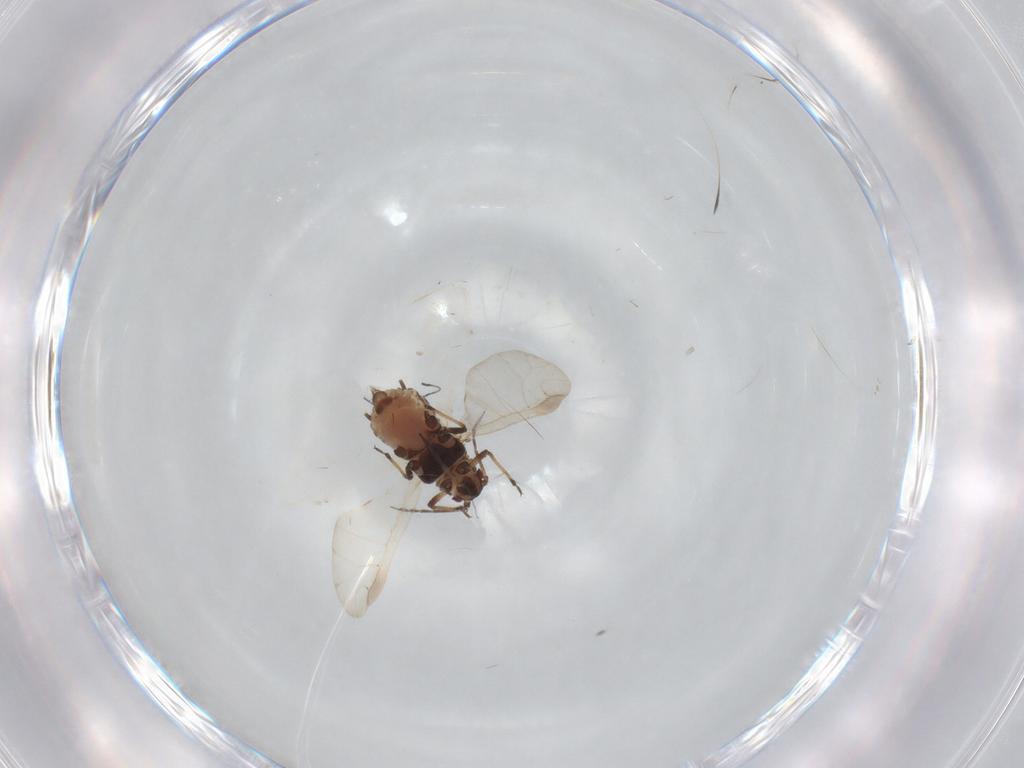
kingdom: Animalia
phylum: Arthropoda
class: Insecta
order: Hemiptera
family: Aphididae
